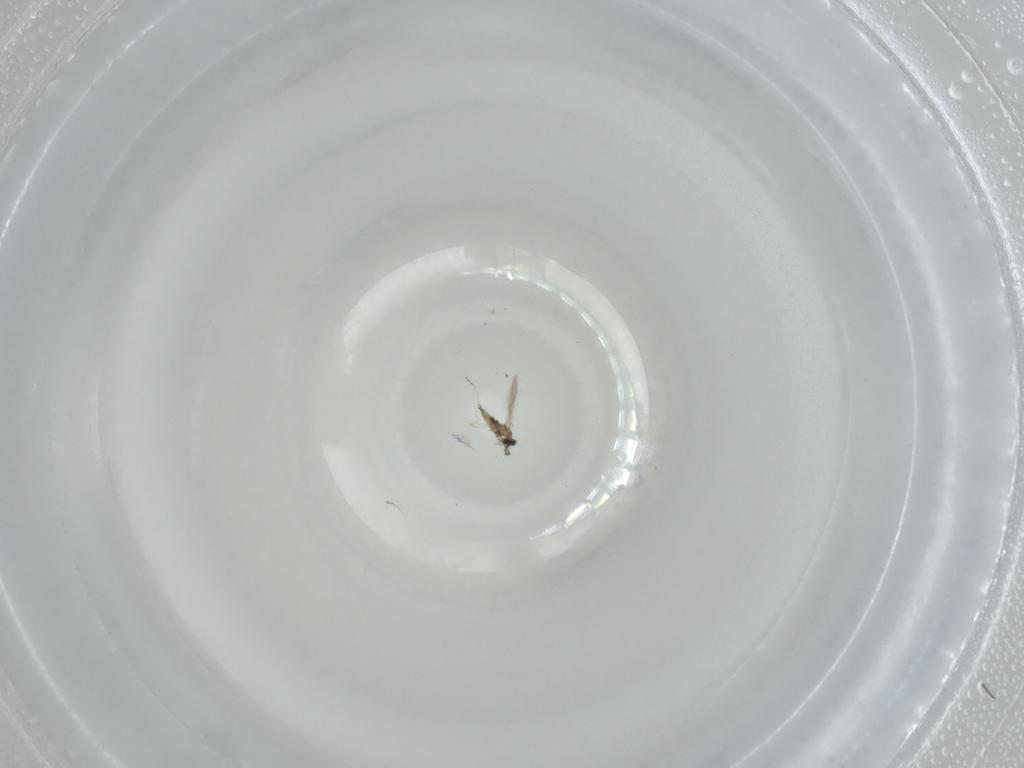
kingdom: Animalia
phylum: Arthropoda
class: Insecta
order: Diptera
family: Cecidomyiidae
